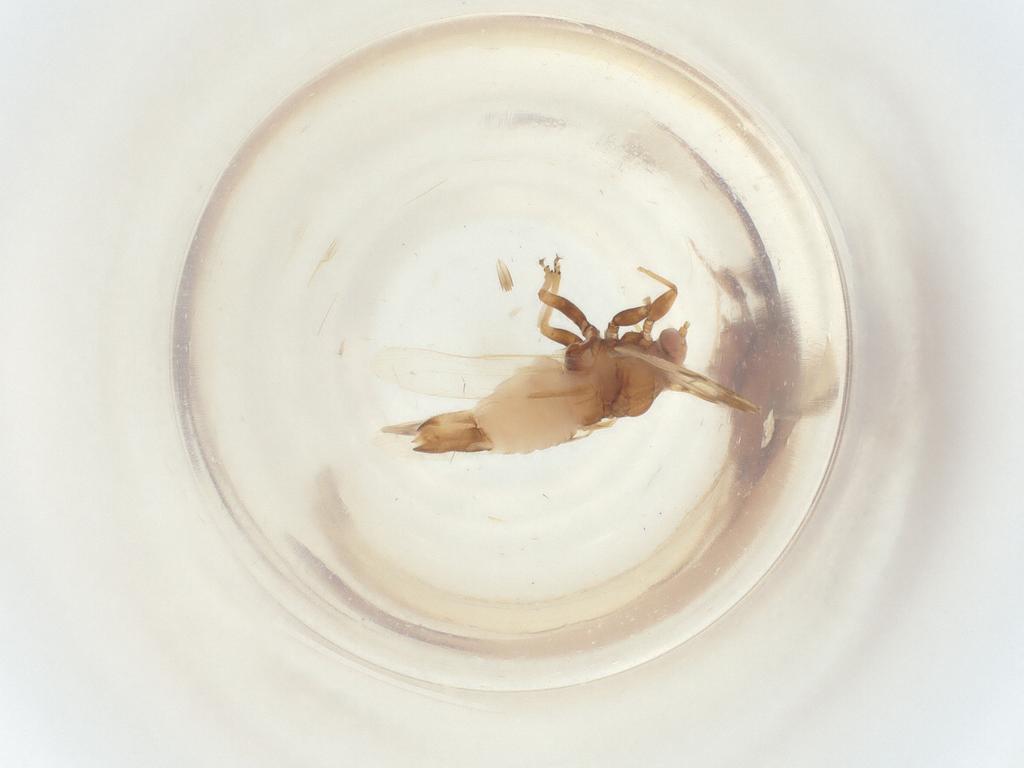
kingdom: Animalia
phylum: Arthropoda
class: Insecta
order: Hemiptera
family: Psyllidae
